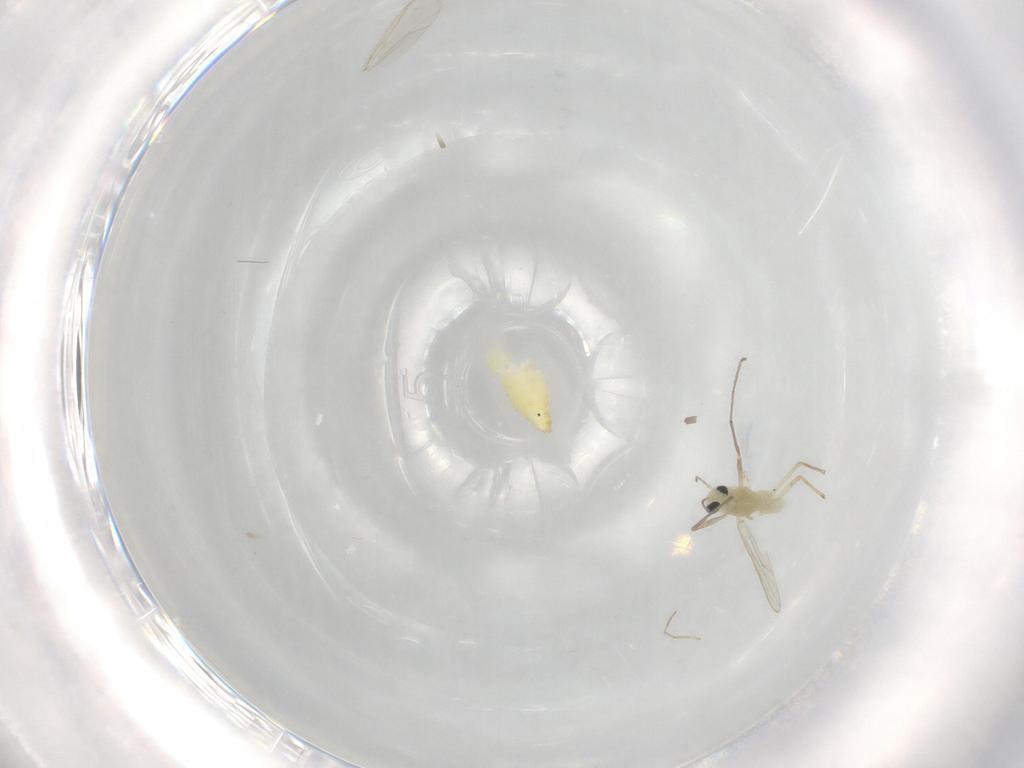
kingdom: Animalia
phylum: Arthropoda
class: Insecta
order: Diptera
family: Chironomidae
